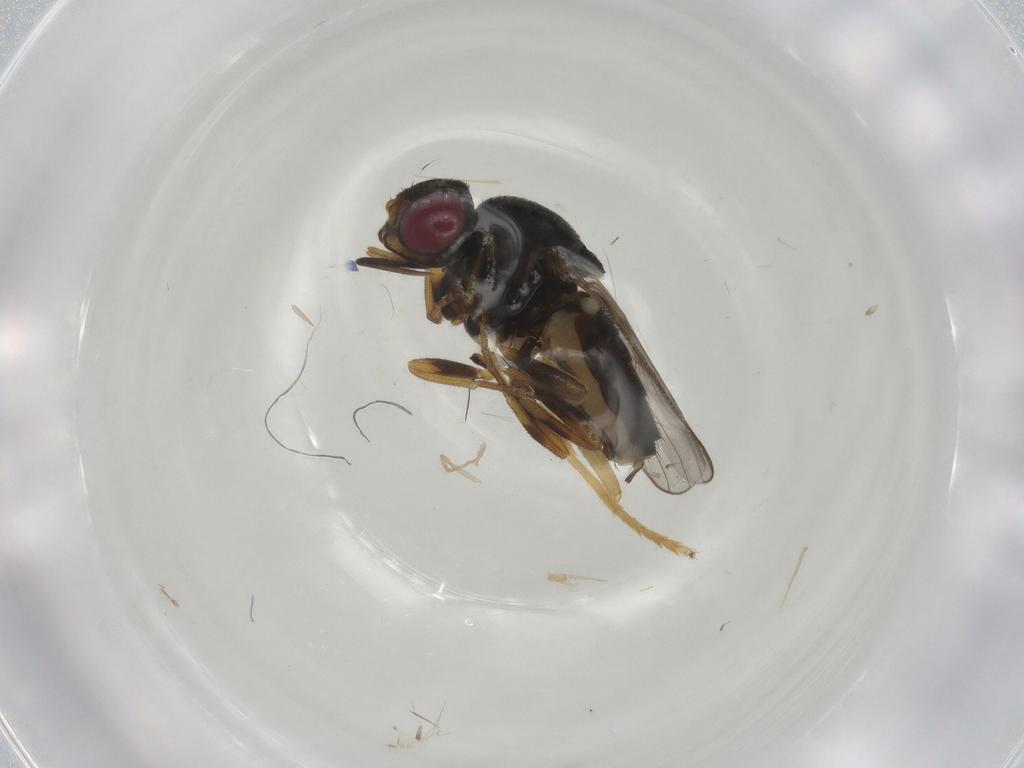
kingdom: Animalia
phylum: Arthropoda
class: Insecta
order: Diptera
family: Chloropidae
